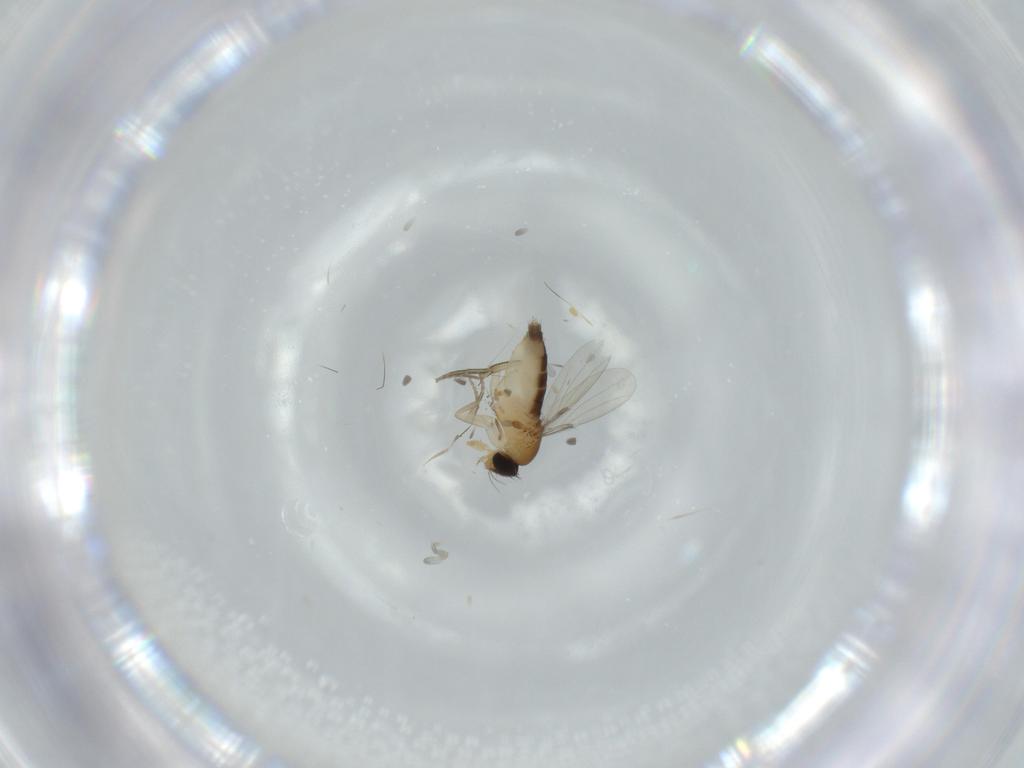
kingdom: Animalia
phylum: Arthropoda
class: Insecta
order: Diptera
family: Phoridae
